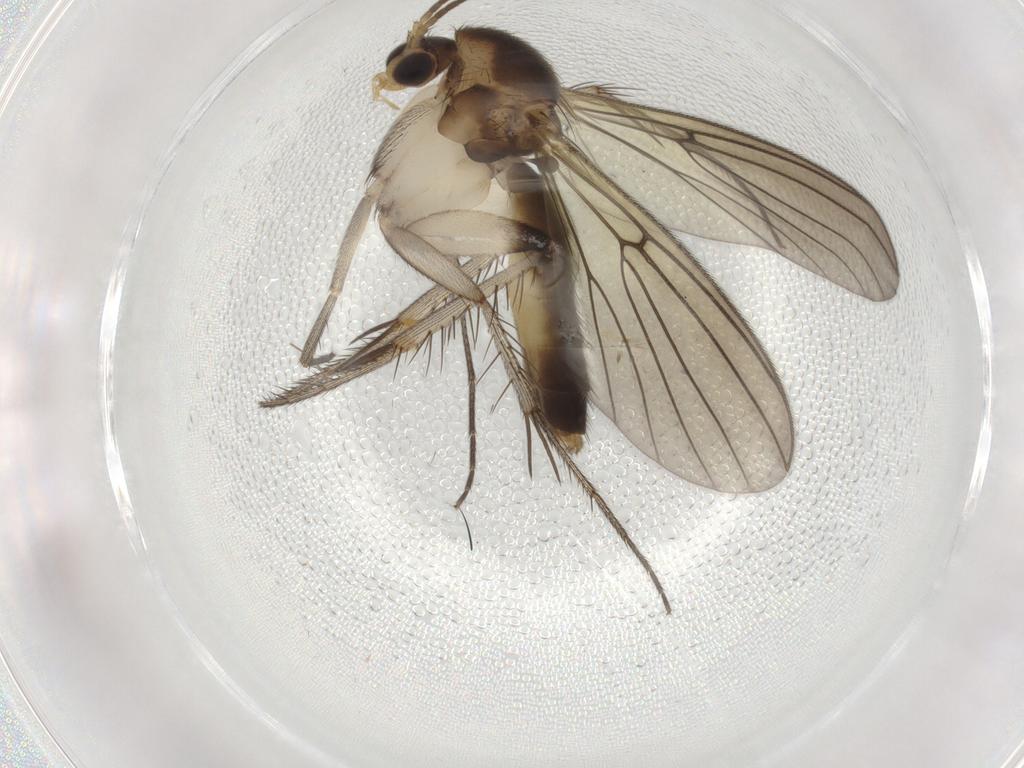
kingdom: Animalia
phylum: Arthropoda
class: Insecta
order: Diptera
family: Mycetophilidae
